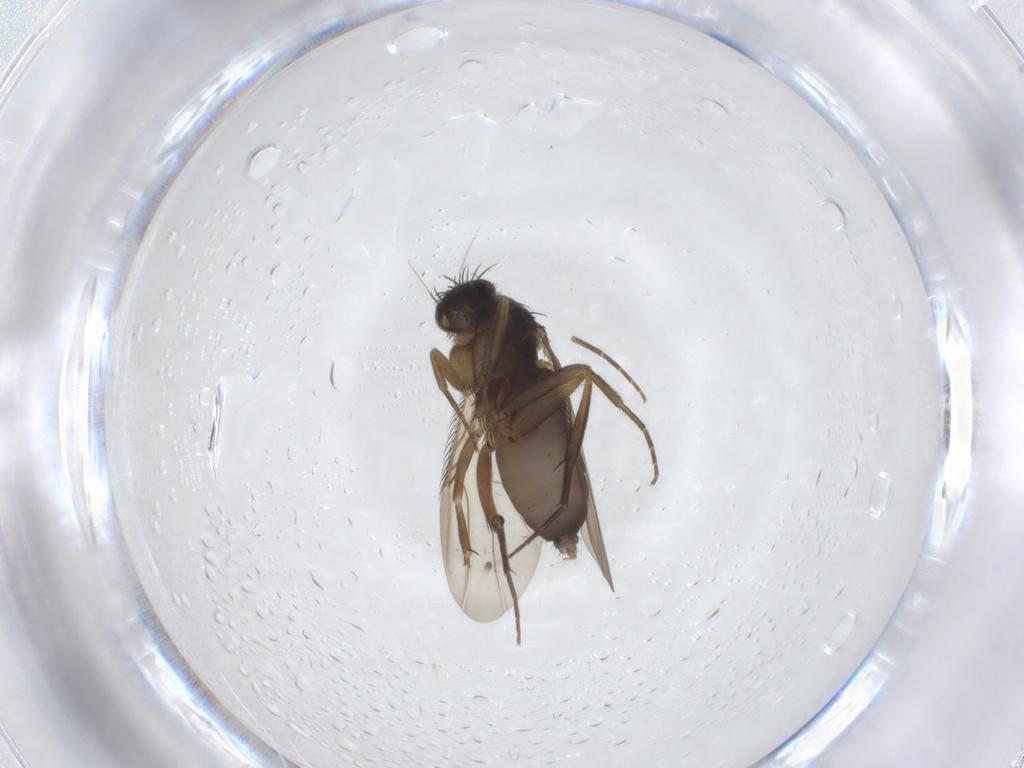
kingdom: Animalia
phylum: Arthropoda
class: Insecta
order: Diptera
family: Phoridae
